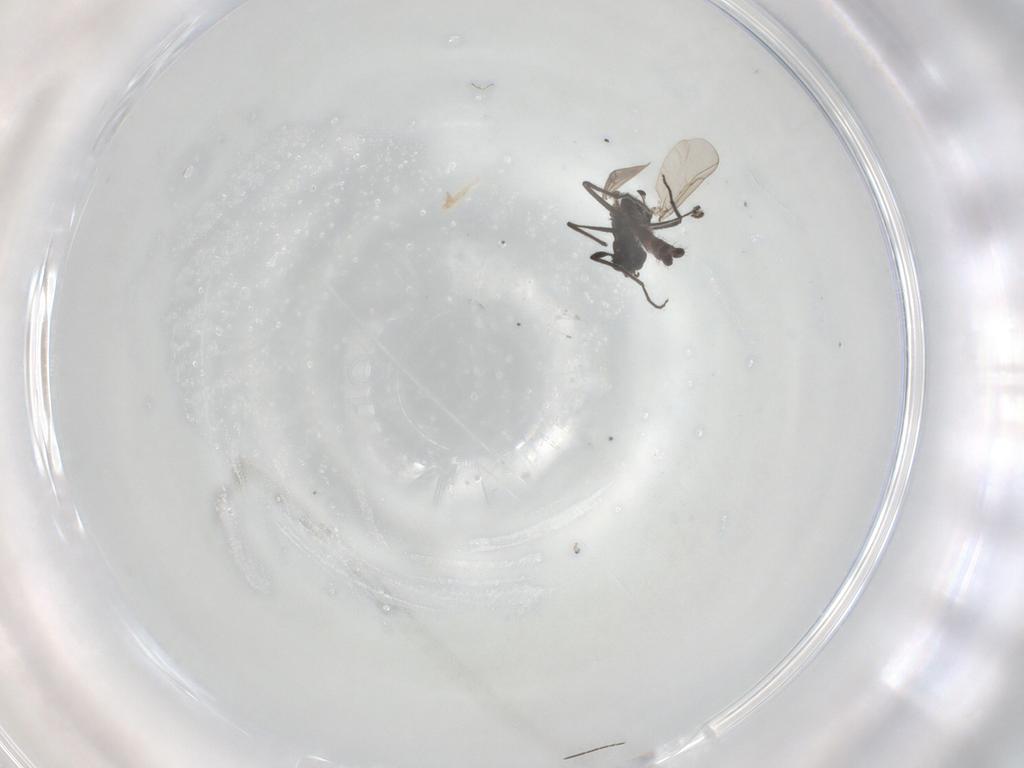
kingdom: Animalia
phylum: Arthropoda
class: Insecta
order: Diptera
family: Chironomidae
